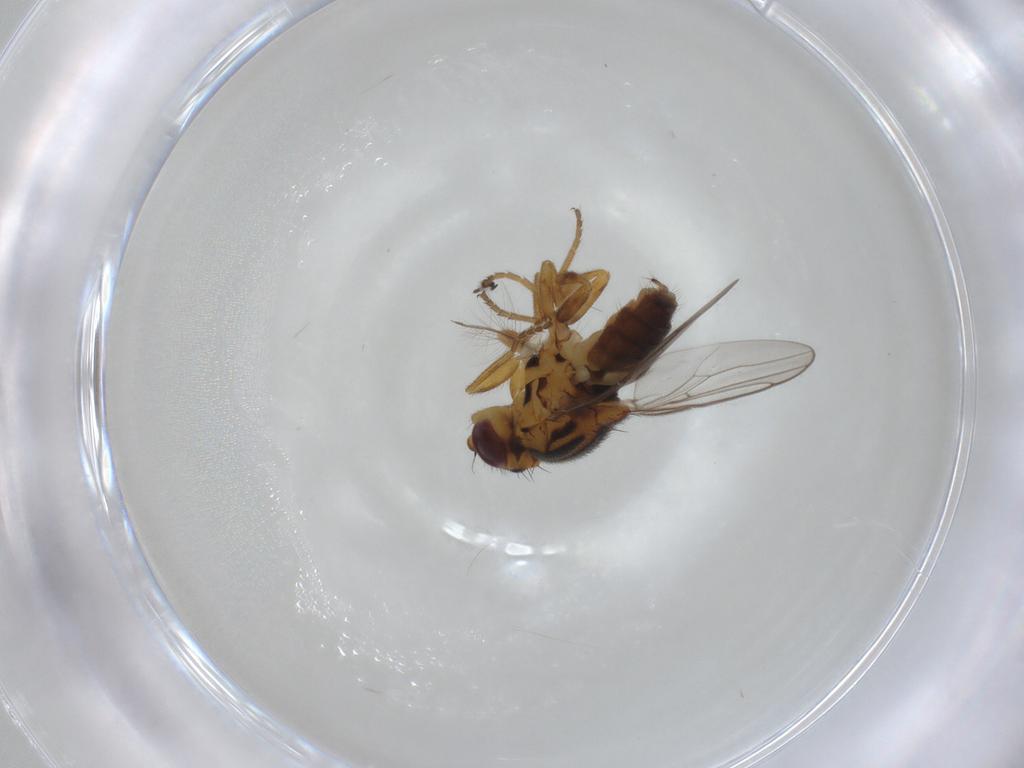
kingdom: Animalia
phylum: Arthropoda
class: Insecta
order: Diptera
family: Chloropidae
